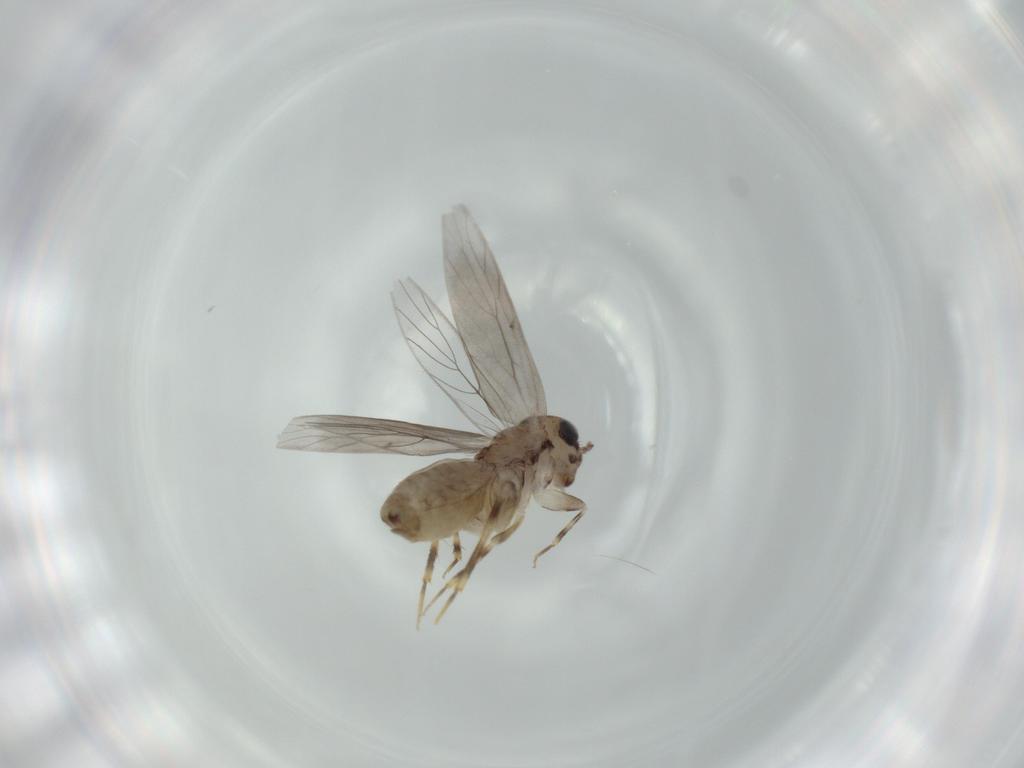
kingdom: Animalia
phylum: Arthropoda
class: Insecta
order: Psocodea
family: Lepidopsocidae
